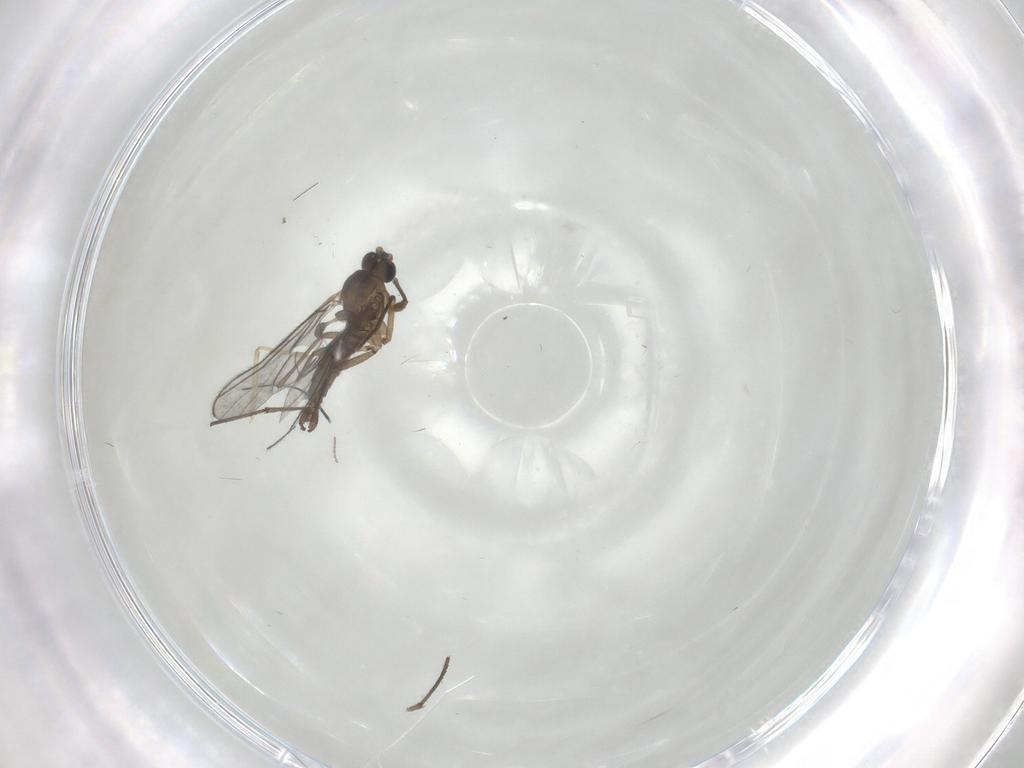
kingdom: Animalia
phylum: Arthropoda
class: Insecta
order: Diptera
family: Chironomidae
